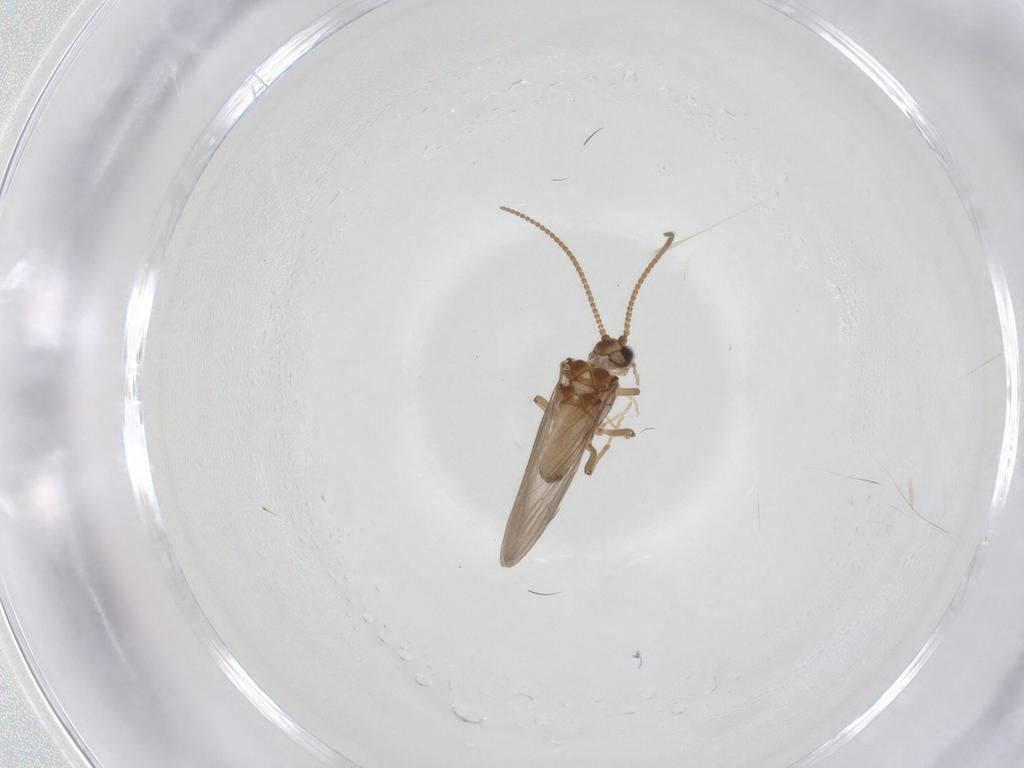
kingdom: Animalia
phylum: Arthropoda
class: Insecta
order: Neuroptera
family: Coniopterygidae
